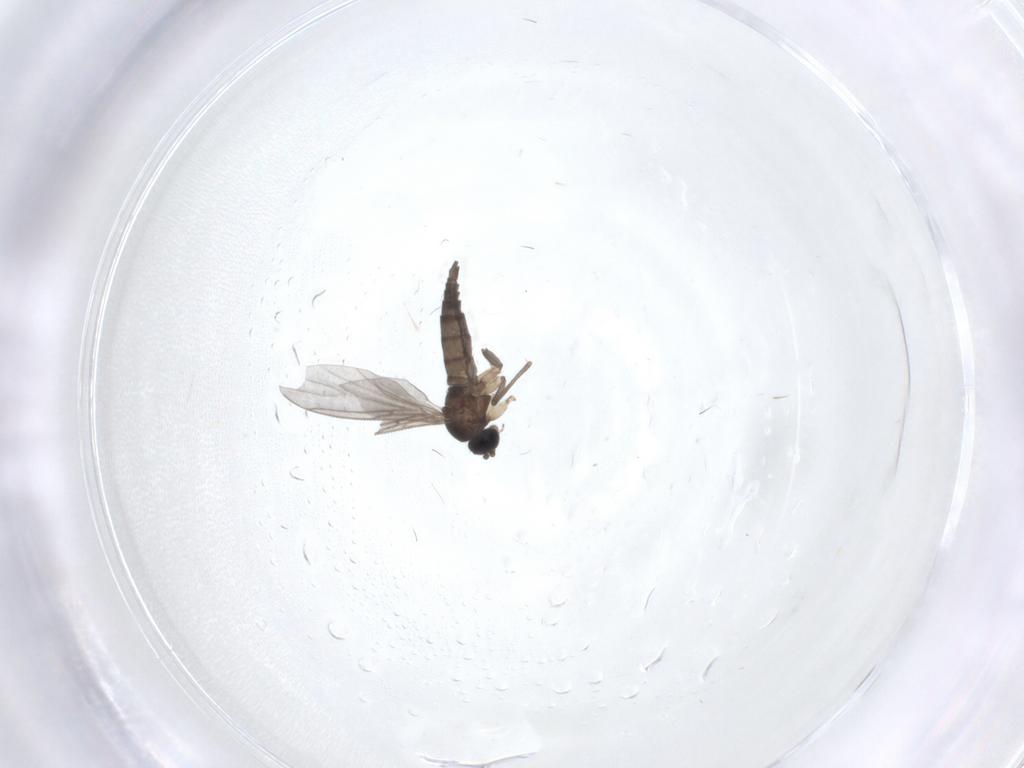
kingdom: Animalia
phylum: Arthropoda
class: Insecta
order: Diptera
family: Sciaridae
